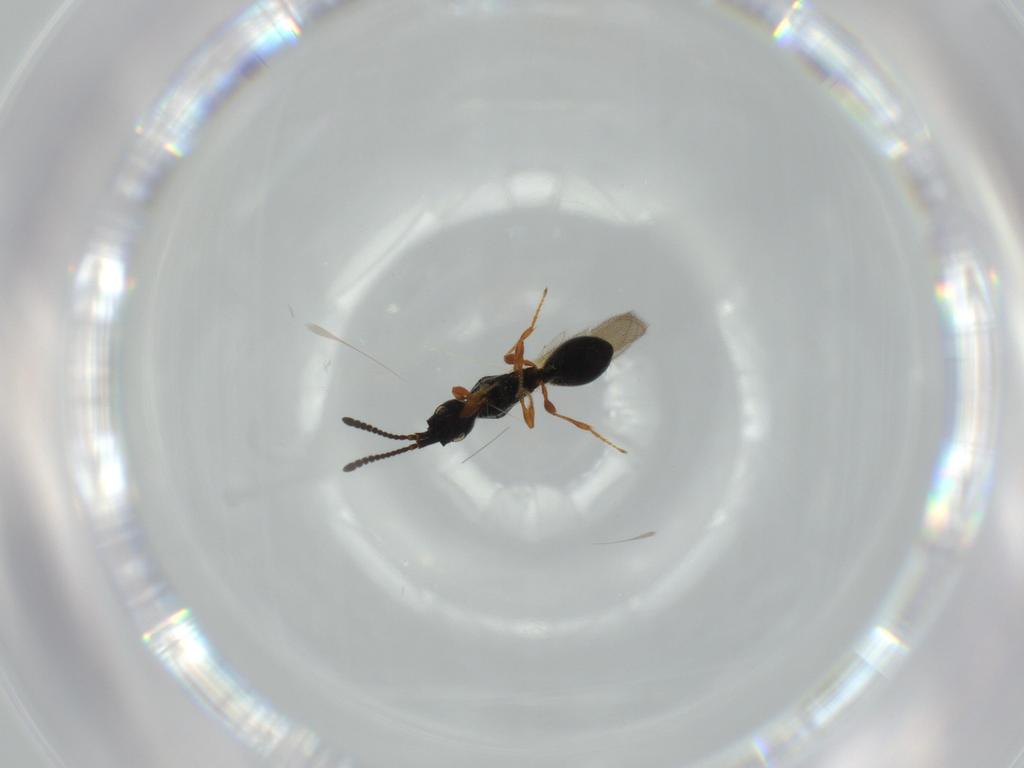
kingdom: Animalia
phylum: Arthropoda
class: Insecta
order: Hymenoptera
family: Diapriidae
